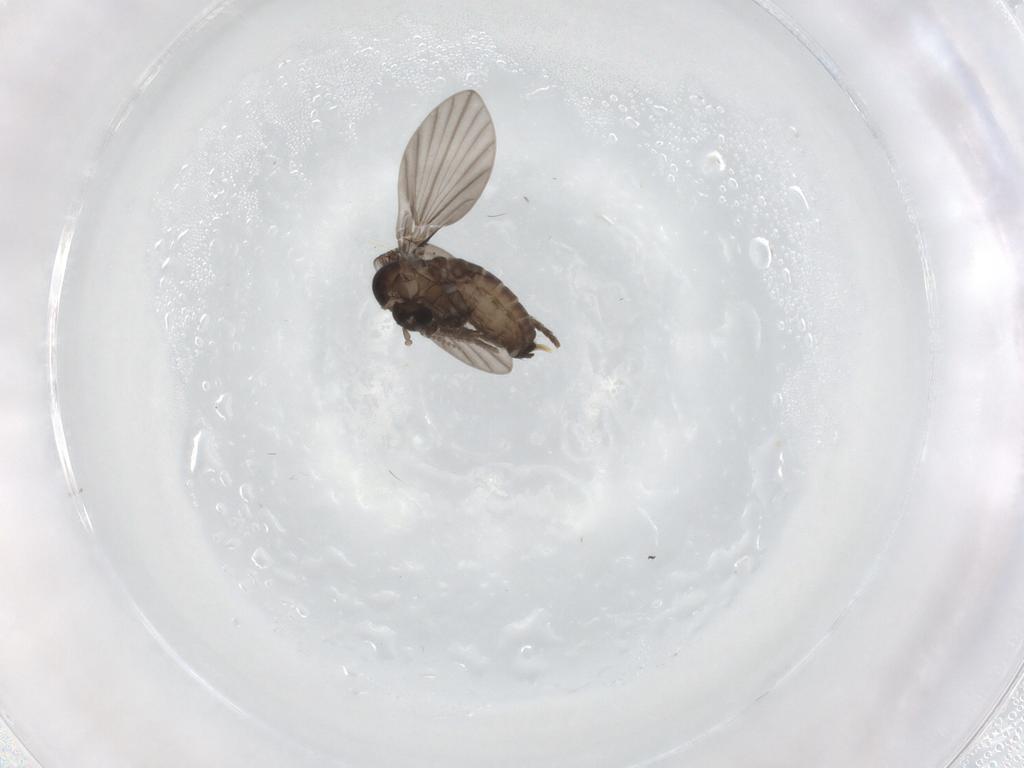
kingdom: Animalia
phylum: Arthropoda
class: Insecta
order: Diptera
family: Psychodidae
